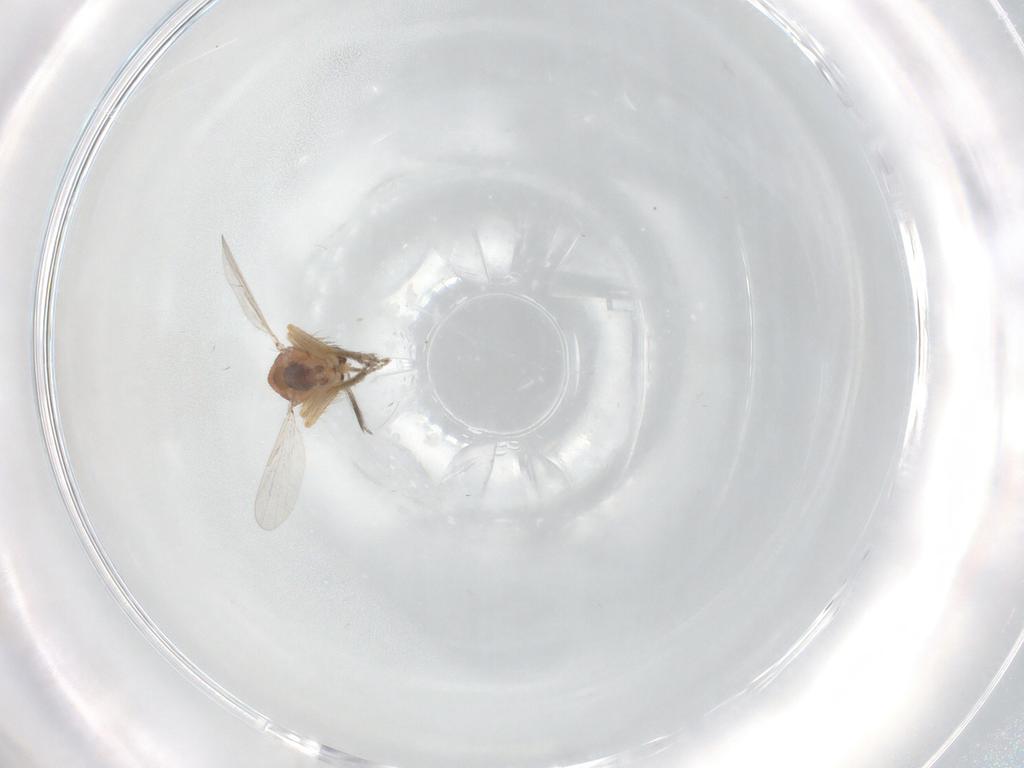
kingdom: Animalia
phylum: Arthropoda
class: Insecta
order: Diptera
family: Ceratopogonidae
